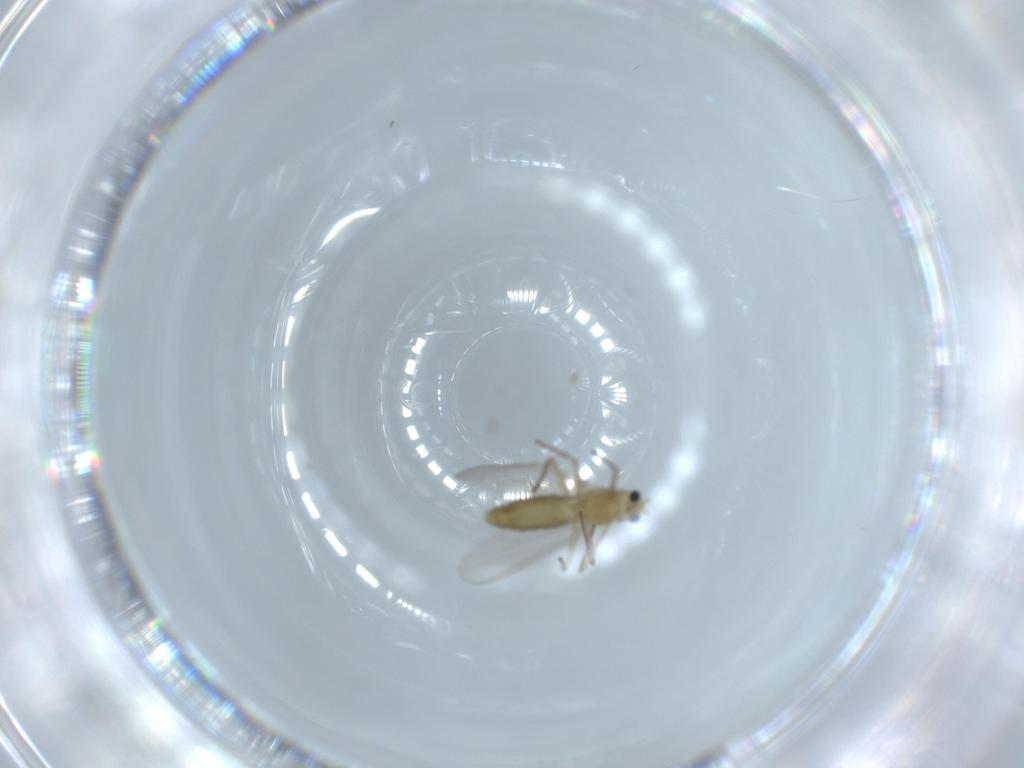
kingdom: Animalia
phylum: Arthropoda
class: Insecta
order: Diptera
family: Chironomidae
